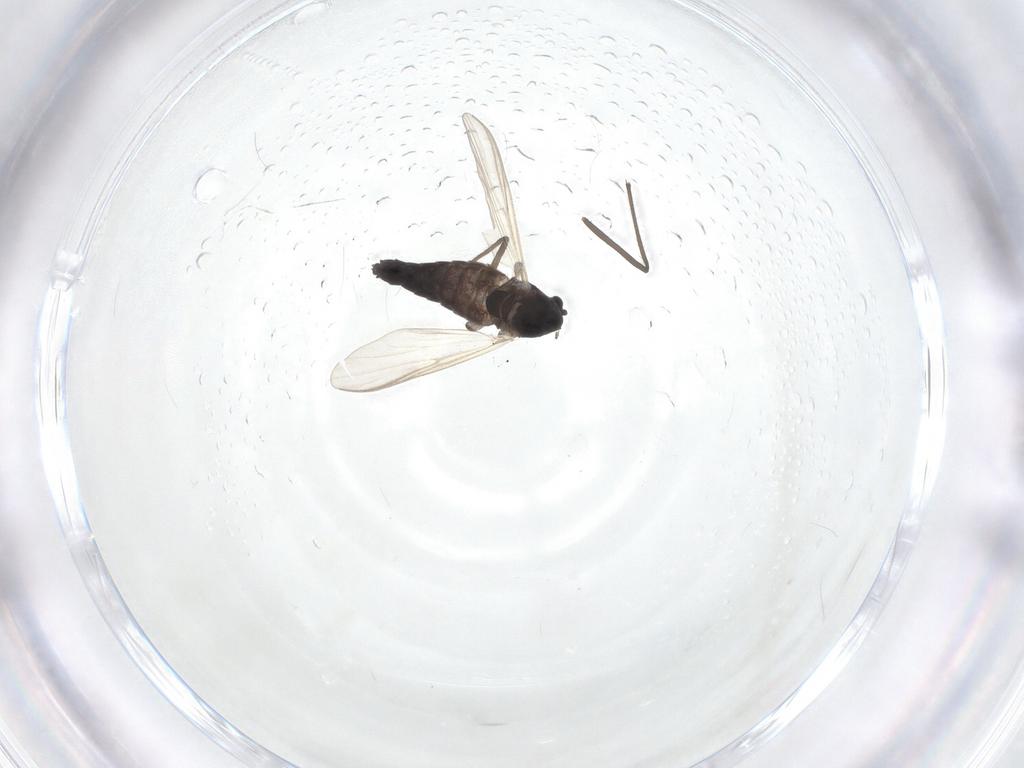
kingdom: Animalia
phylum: Arthropoda
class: Insecta
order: Diptera
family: Chironomidae
